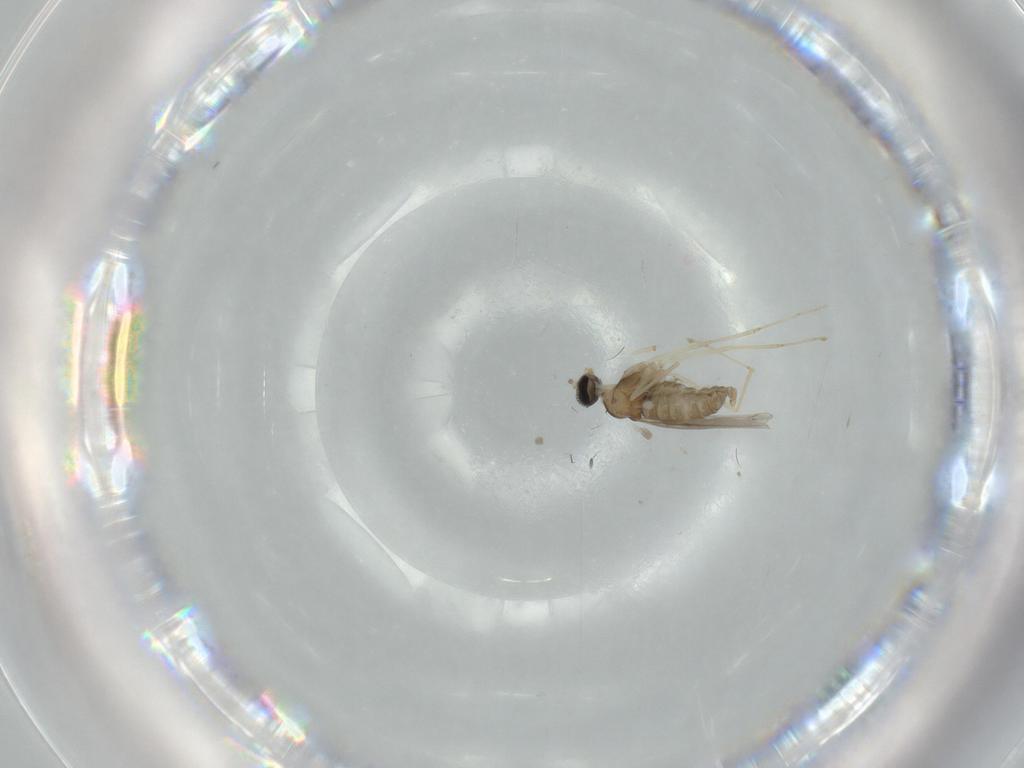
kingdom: Animalia
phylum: Arthropoda
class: Insecta
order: Diptera
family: Cecidomyiidae
